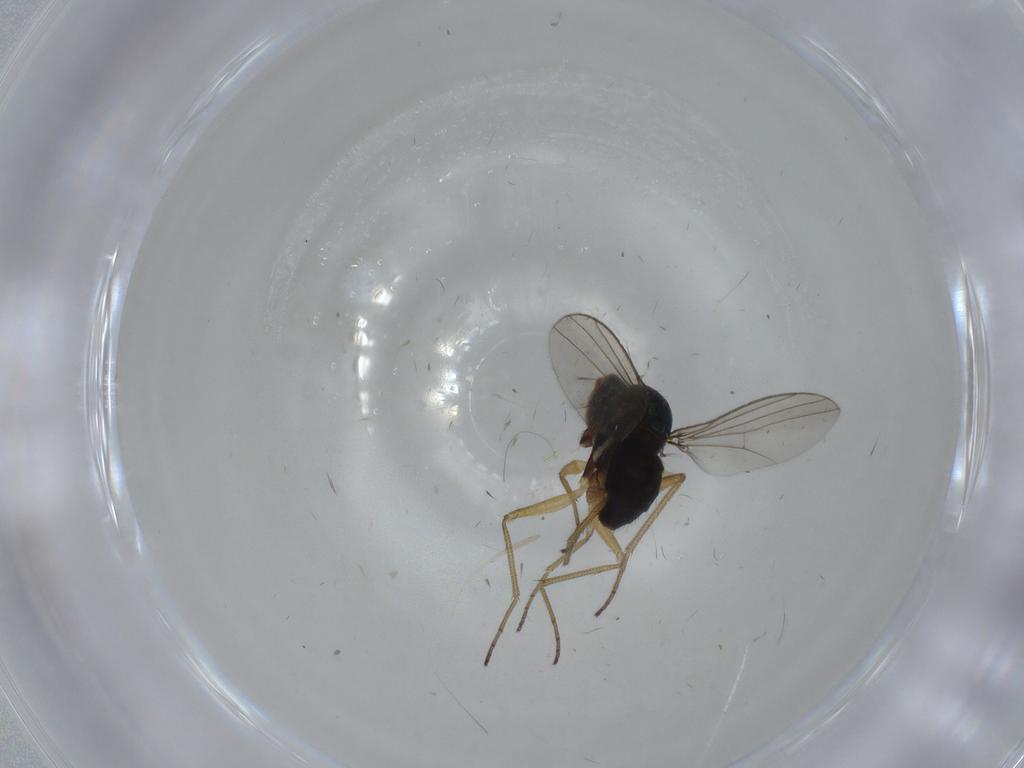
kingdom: Animalia
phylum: Arthropoda
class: Insecta
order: Diptera
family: Dolichopodidae
